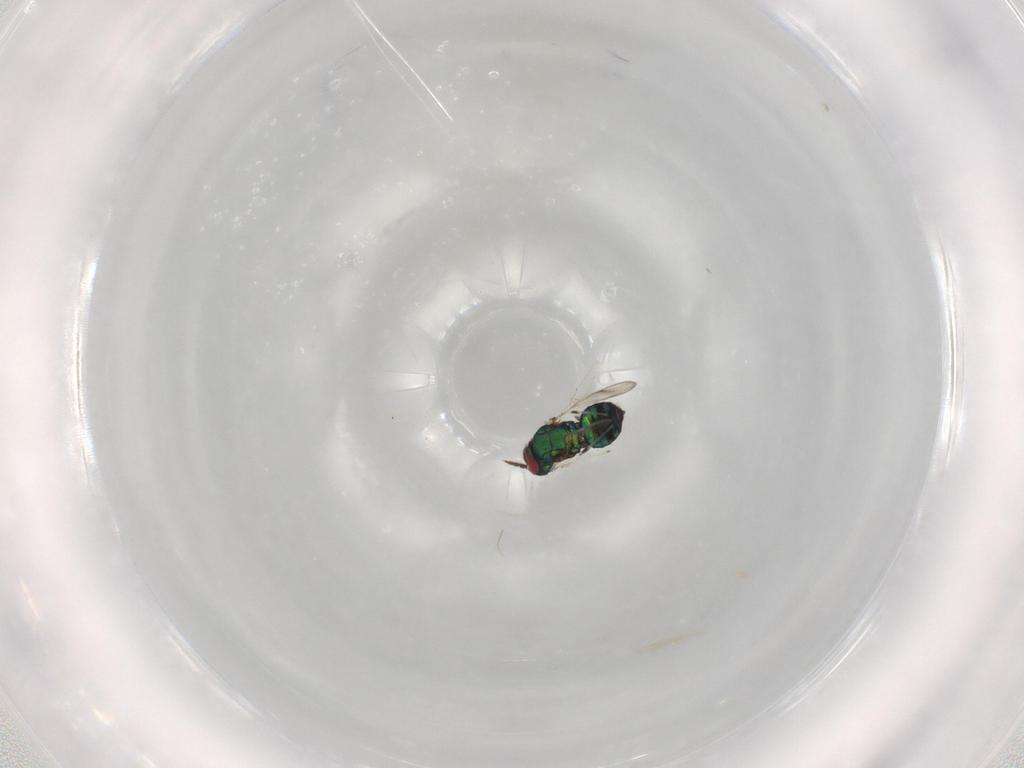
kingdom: Animalia
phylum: Arthropoda
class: Insecta
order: Hymenoptera
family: Eulophidae
